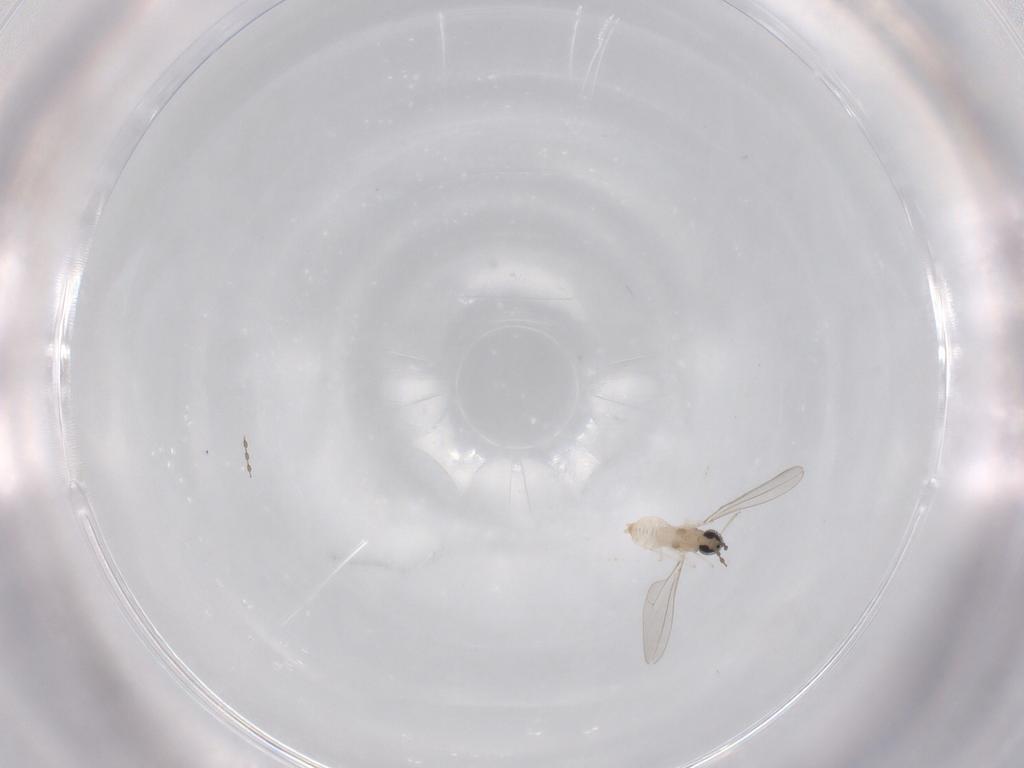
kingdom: Animalia
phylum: Arthropoda
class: Insecta
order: Diptera
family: Cecidomyiidae
